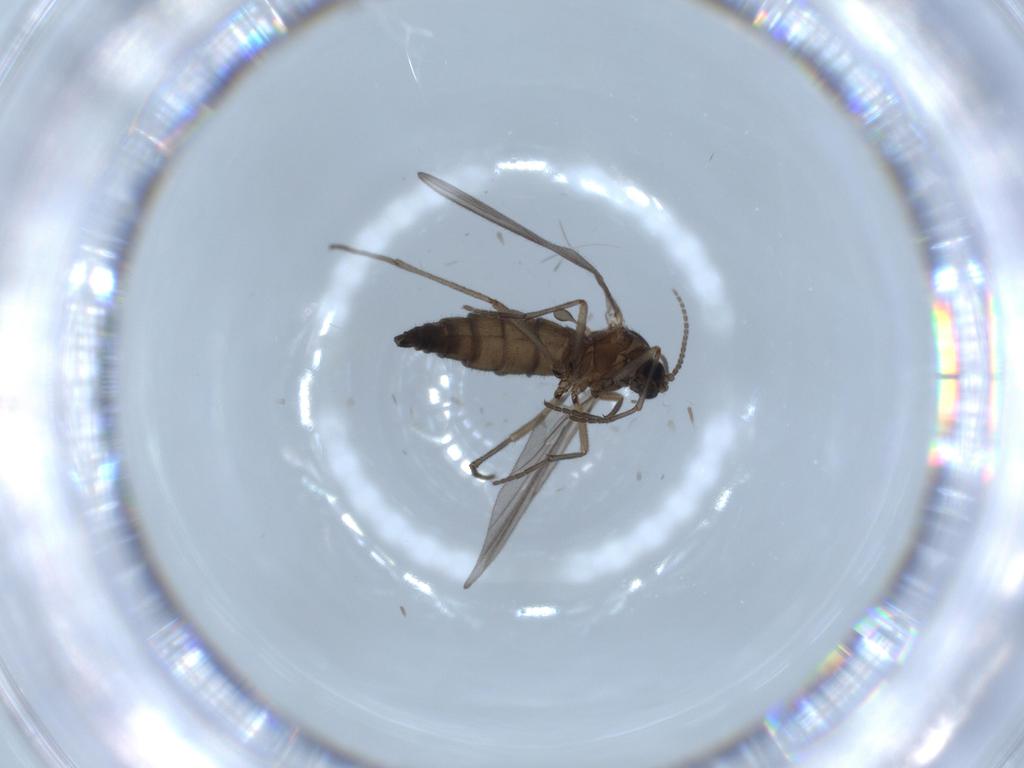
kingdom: Animalia
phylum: Arthropoda
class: Insecta
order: Diptera
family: Sciaridae
